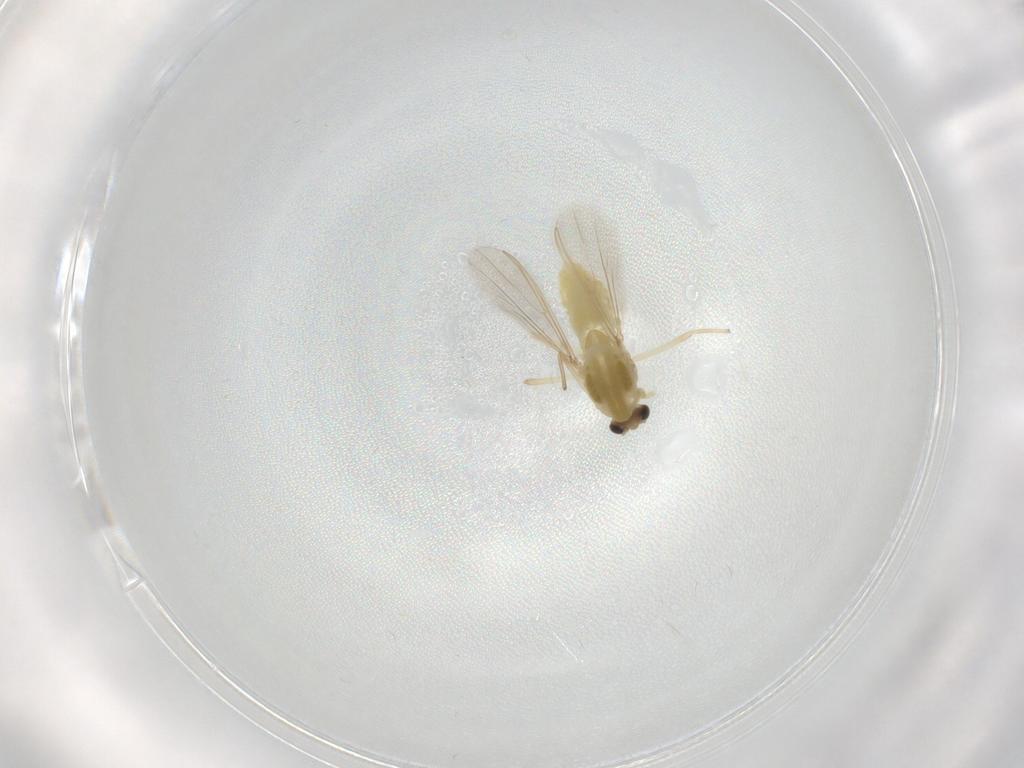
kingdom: Animalia
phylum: Arthropoda
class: Insecta
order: Diptera
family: Chironomidae
